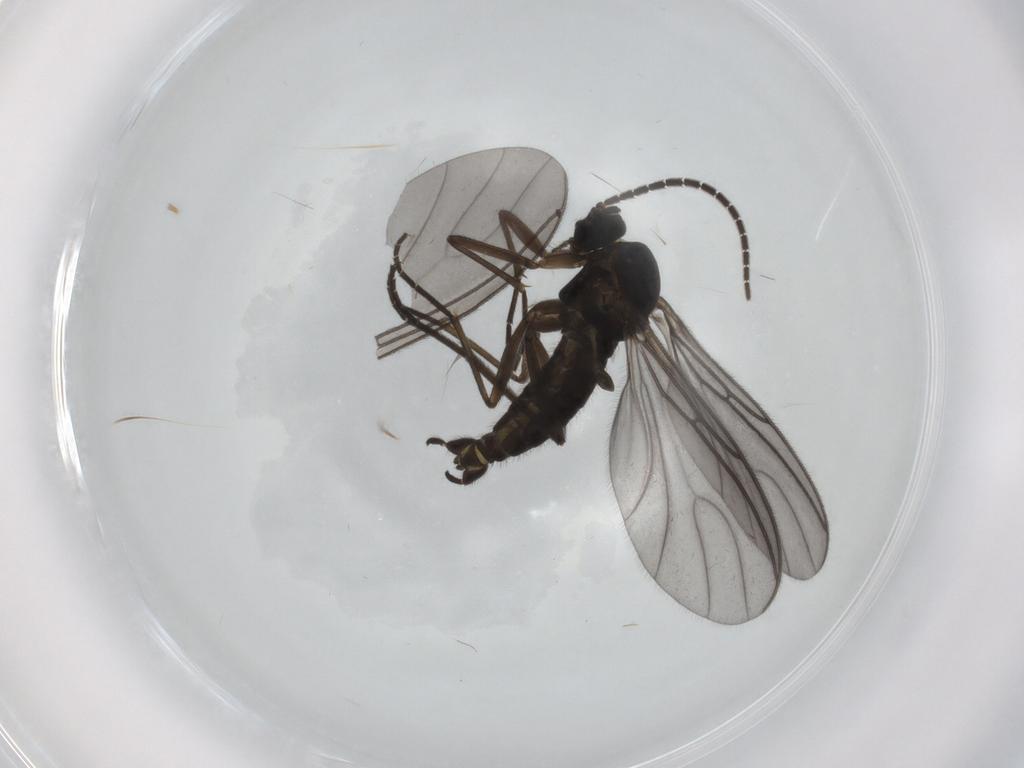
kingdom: Animalia
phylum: Arthropoda
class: Insecta
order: Diptera
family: Sciaridae
